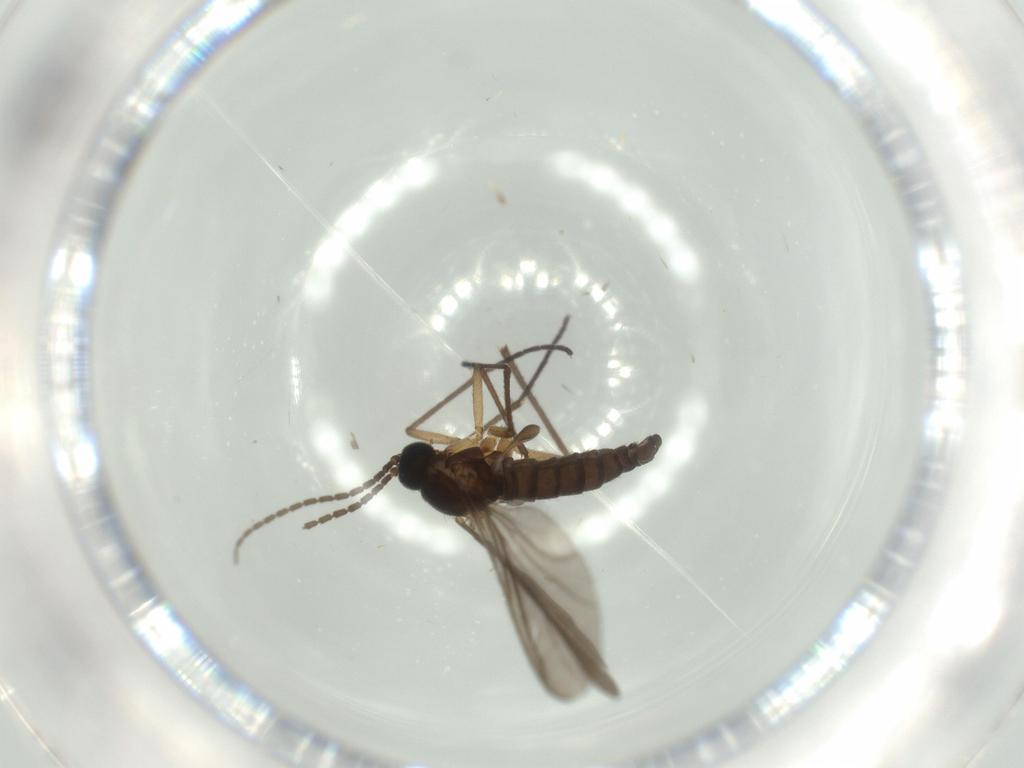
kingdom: Animalia
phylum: Arthropoda
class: Insecta
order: Diptera
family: Sciaridae
